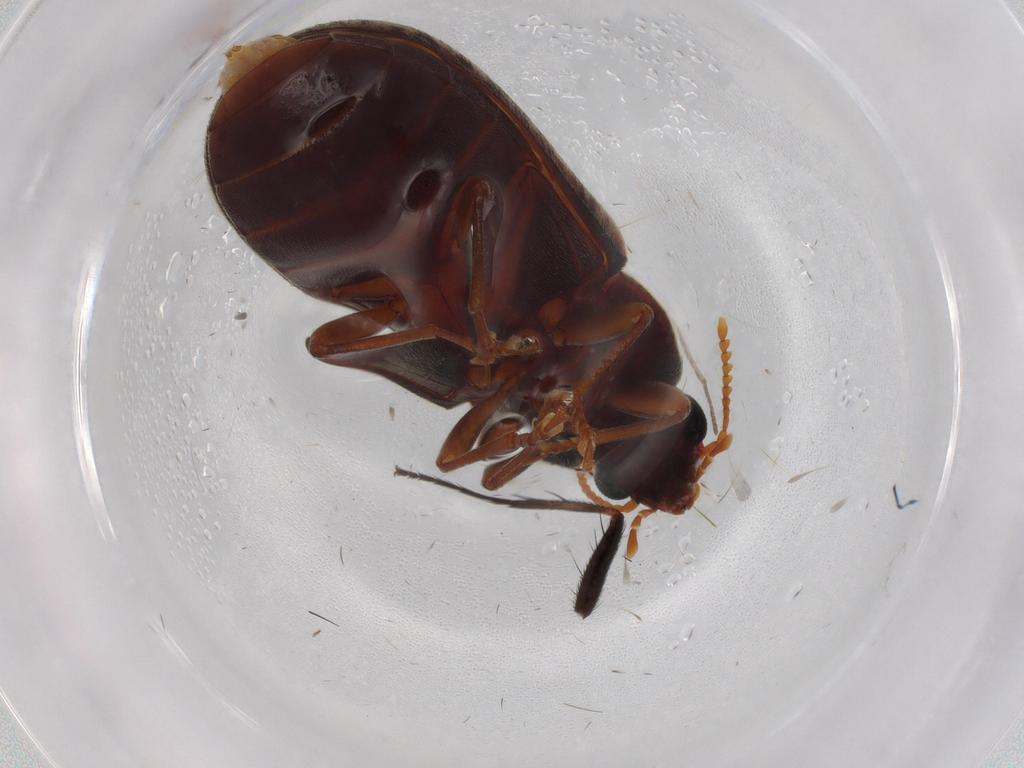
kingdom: Animalia
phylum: Arthropoda
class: Insecta
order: Coleoptera
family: Mycteridae
